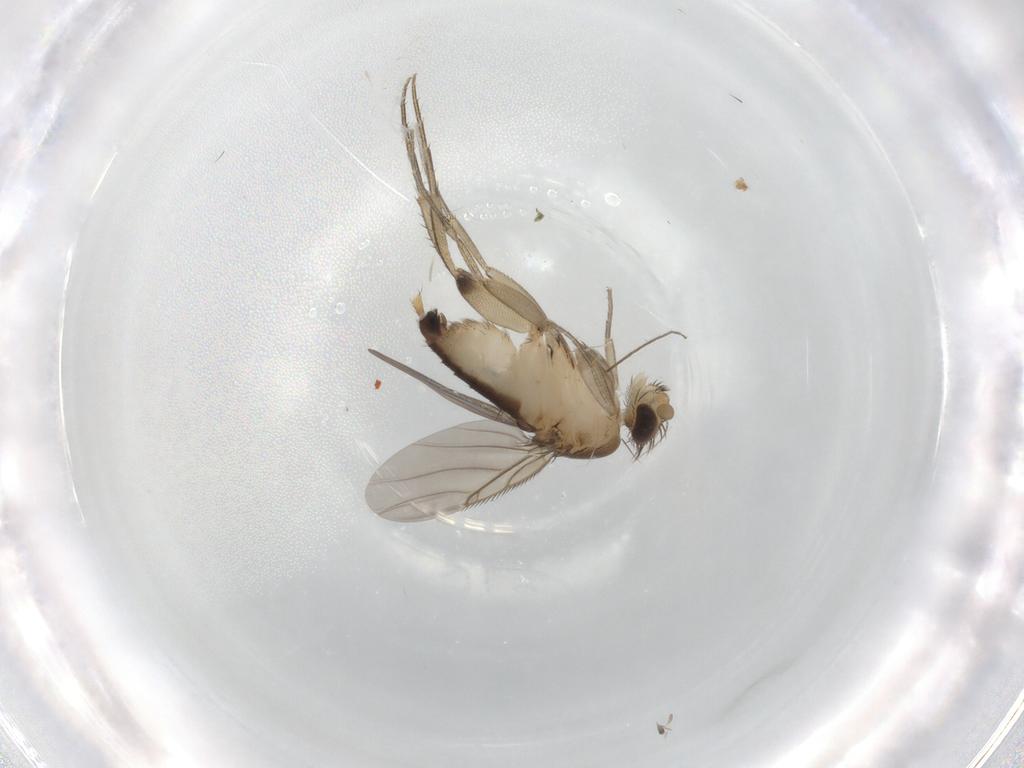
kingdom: Animalia
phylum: Arthropoda
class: Insecta
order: Diptera
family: Phoridae
